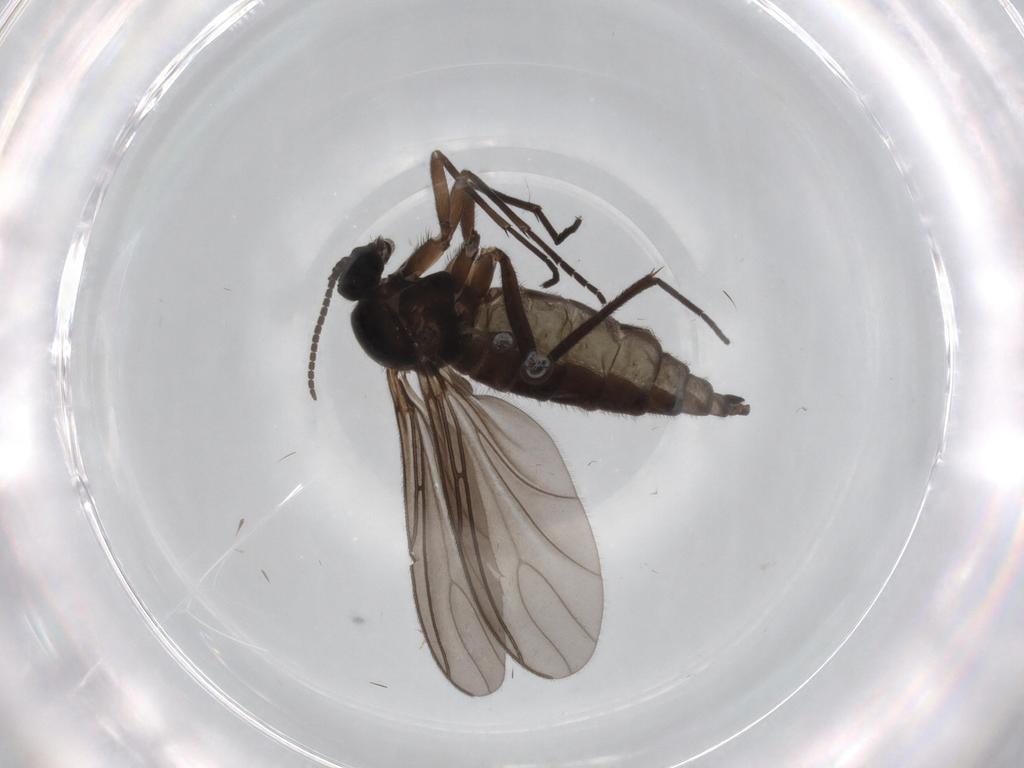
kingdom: Animalia
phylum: Arthropoda
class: Insecta
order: Diptera
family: Sciaridae
